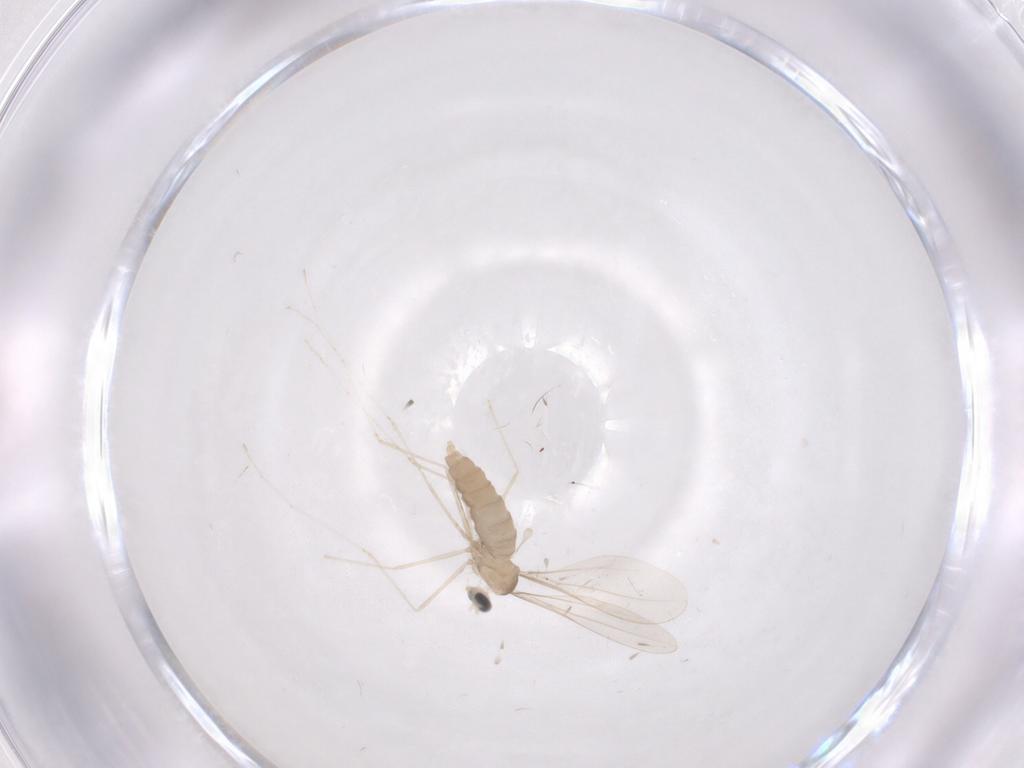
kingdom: Animalia
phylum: Arthropoda
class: Insecta
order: Diptera
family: Cecidomyiidae
